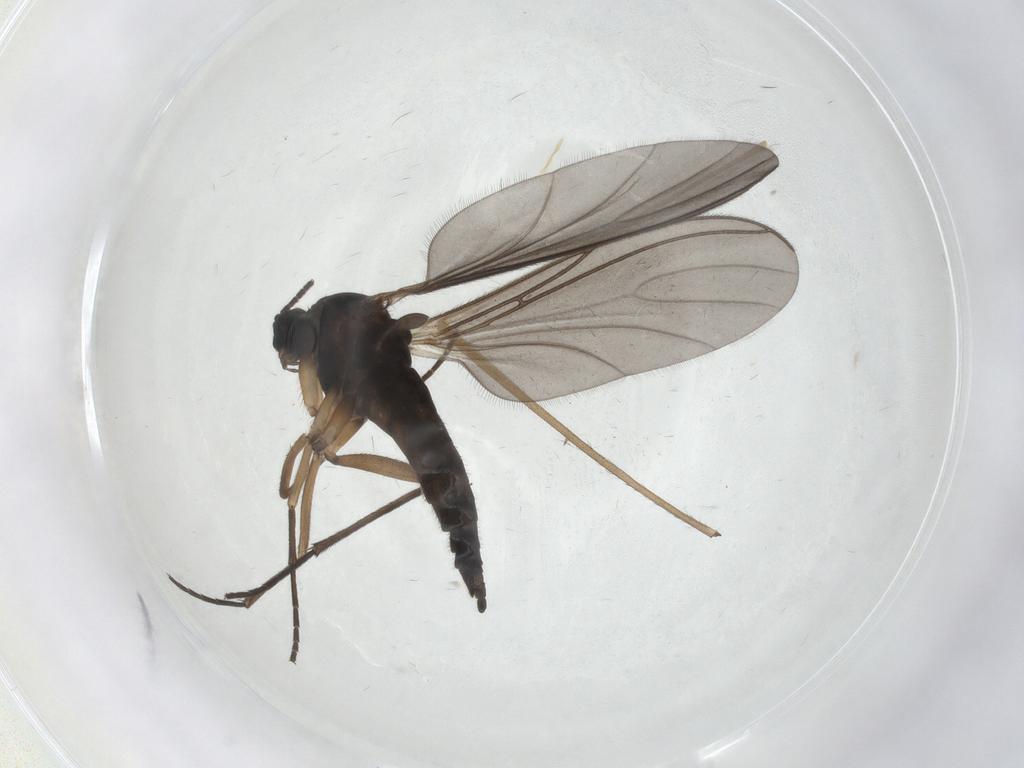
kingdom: Animalia
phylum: Arthropoda
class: Insecta
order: Diptera
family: Sciaridae
